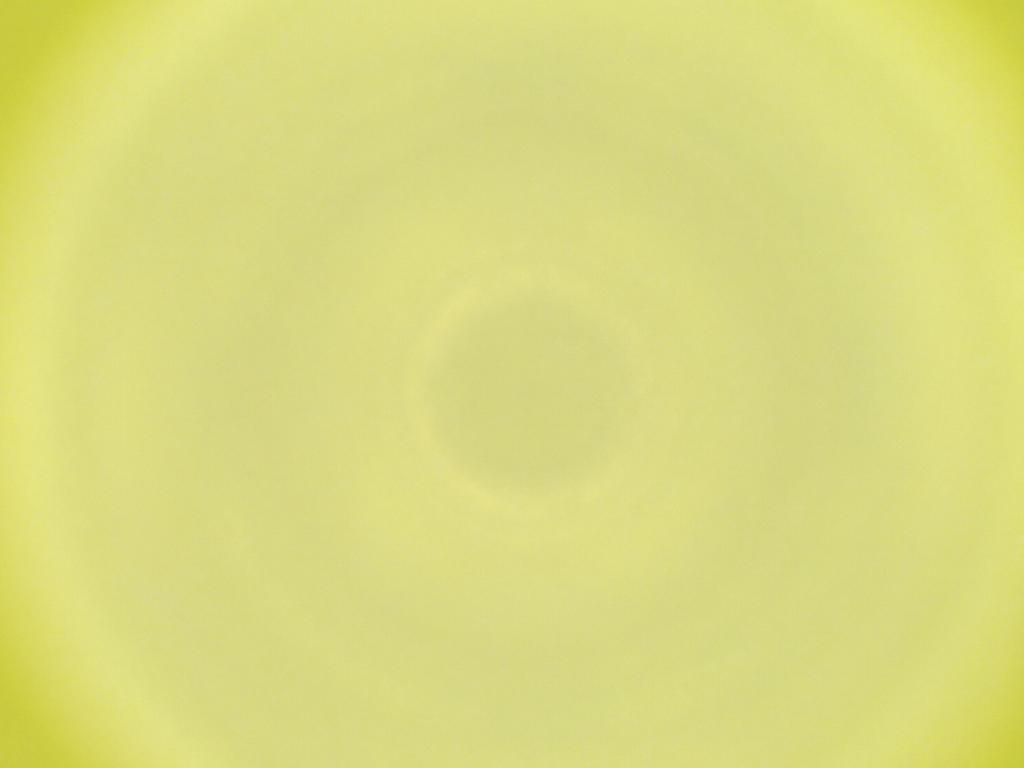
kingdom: Animalia
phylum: Arthropoda
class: Insecta
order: Diptera
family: Cecidomyiidae
